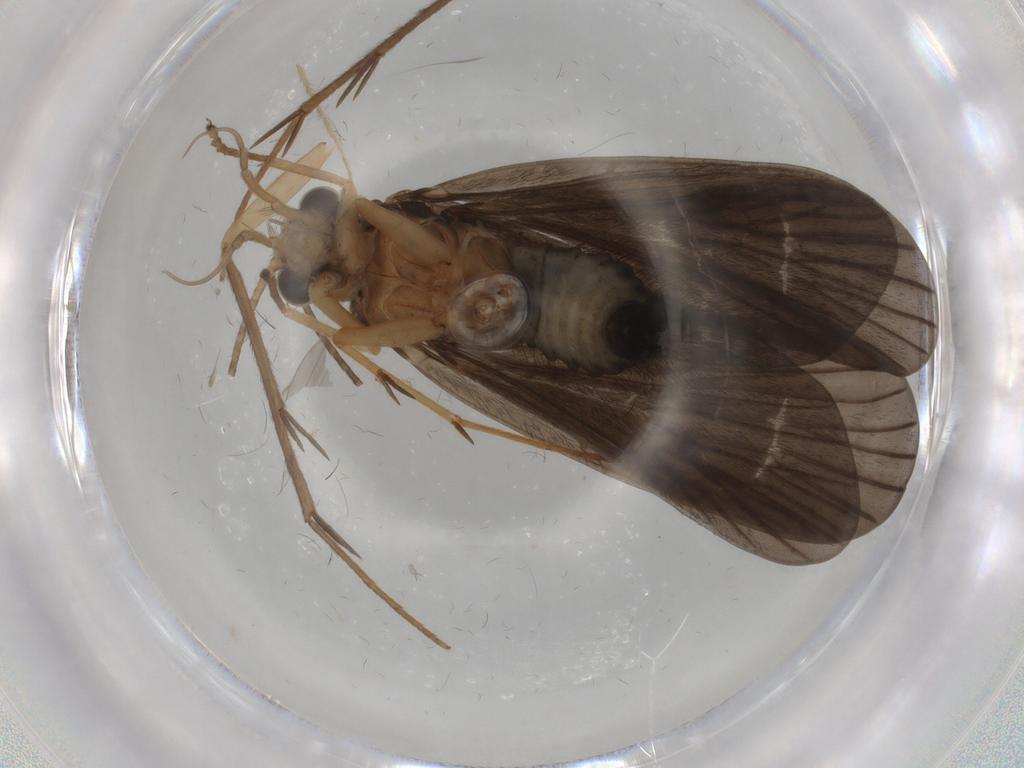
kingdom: Animalia
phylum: Arthropoda
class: Insecta
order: Trichoptera
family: Philopotamidae
